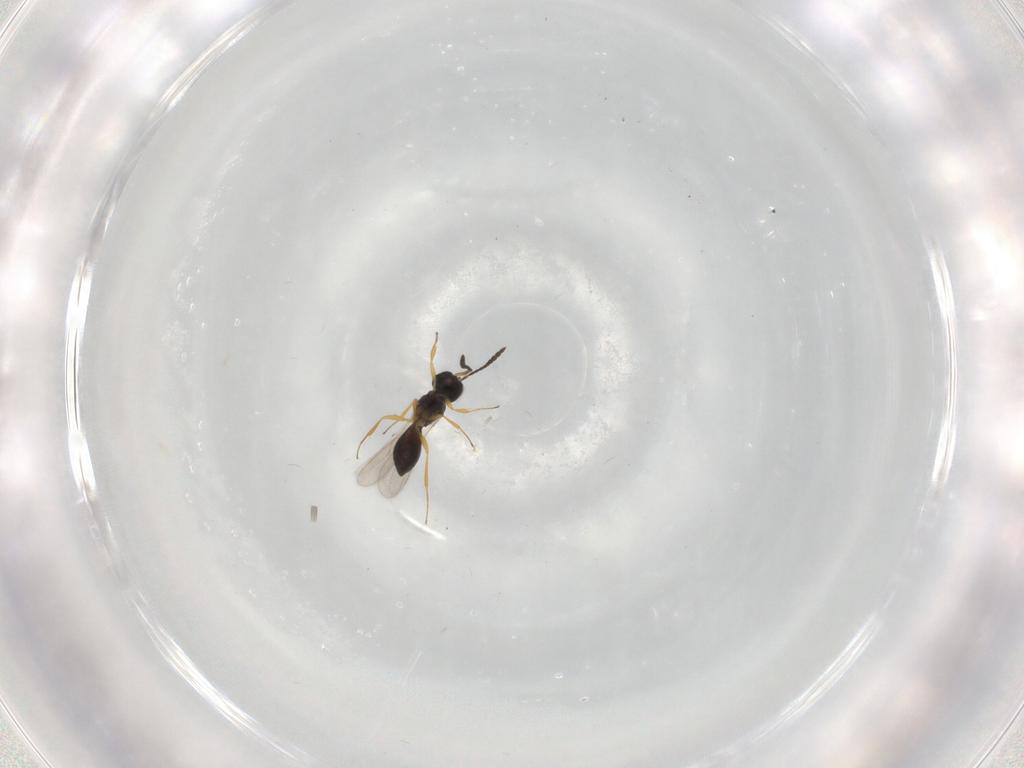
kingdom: Animalia
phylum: Arthropoda
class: Insecta
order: Hymenoptera
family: Scelionidae
